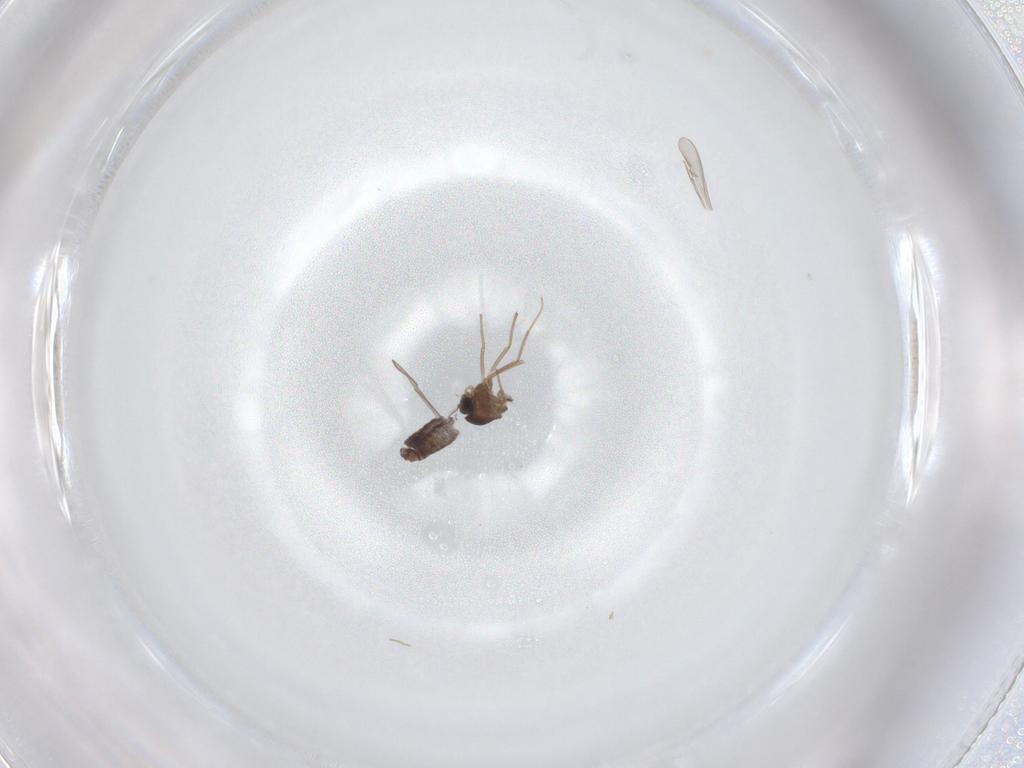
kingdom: Animalia
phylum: Arthropoda
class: Insecta
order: Diptera
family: Chironomidae
